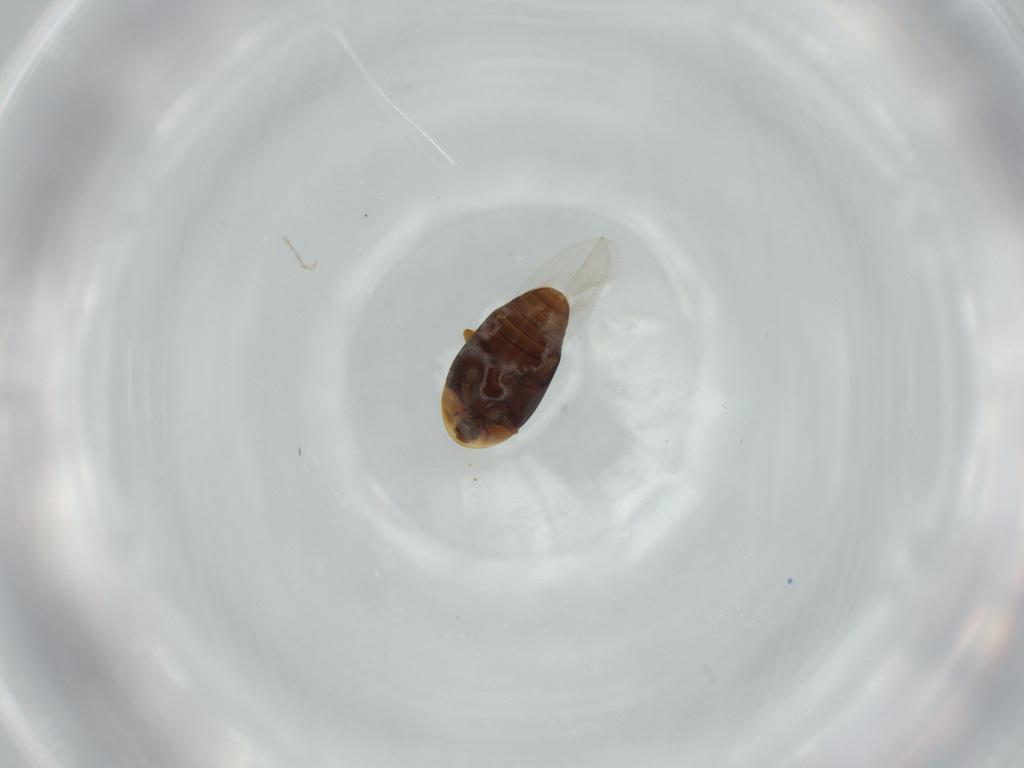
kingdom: Animalia
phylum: Arthropoda
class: Insecta
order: Coleoptera
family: Corylophidae
